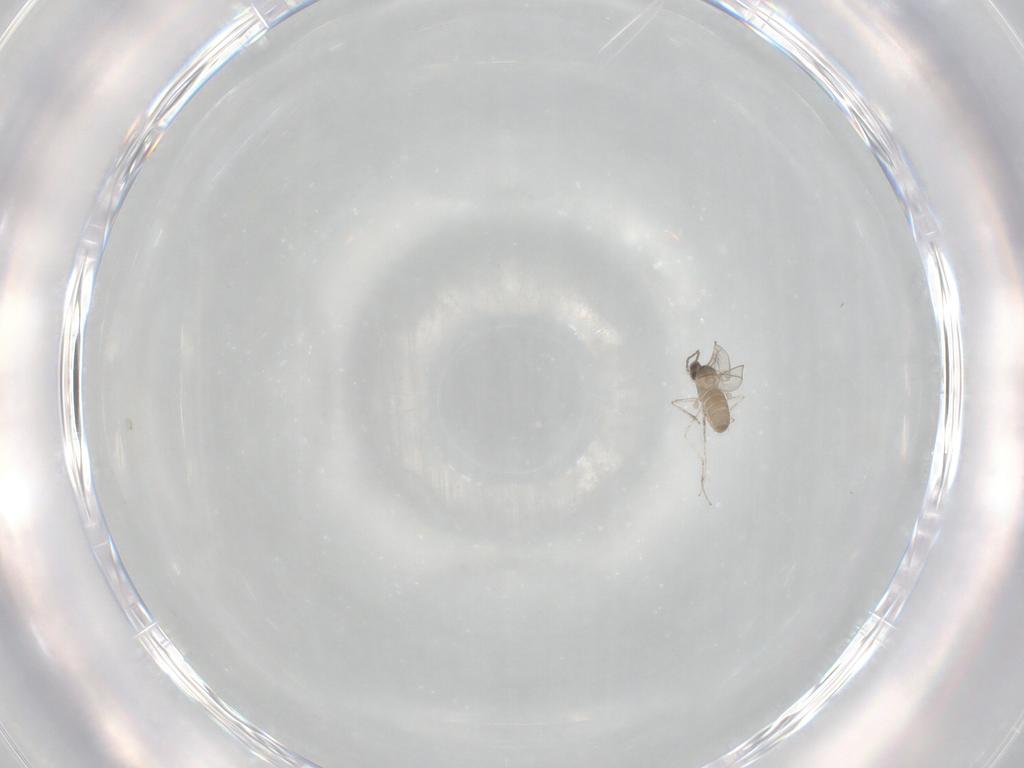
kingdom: Animalia
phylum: Arthropoda
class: Insecta
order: Diptera
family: Cecidomyiidae
